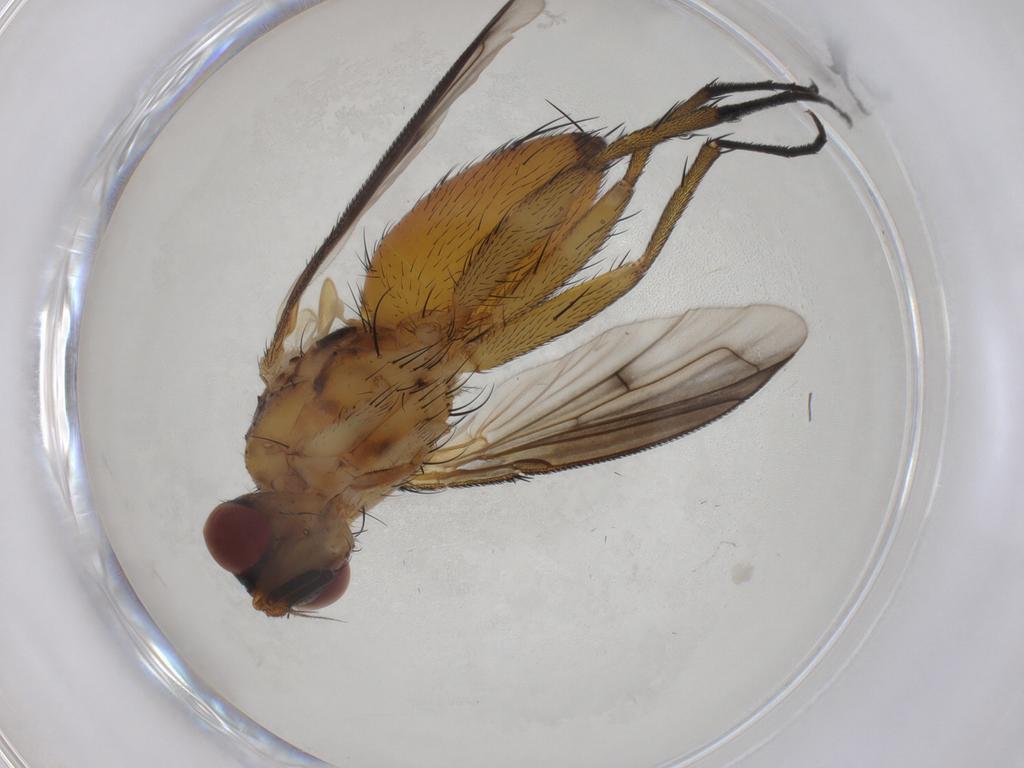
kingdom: Animalia
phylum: Arthropoda
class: Insecta
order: Diptera
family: Tachinidae
